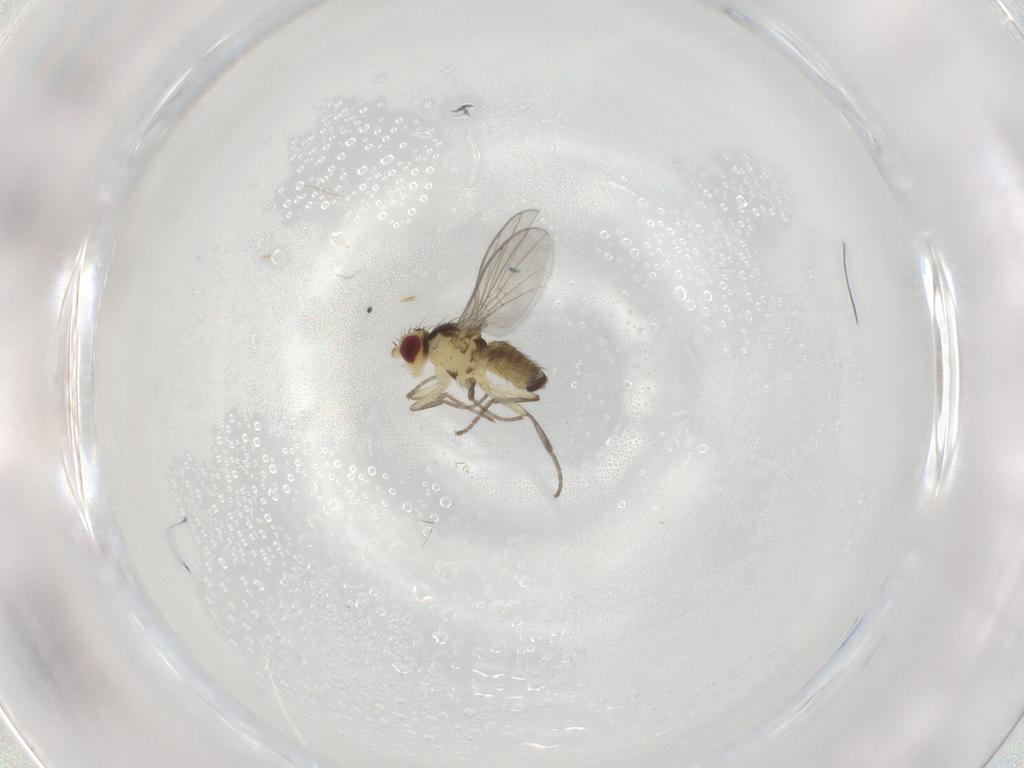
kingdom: Animalia
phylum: Arthropoda
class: Insecta
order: Diptera
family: Agromyzidae
